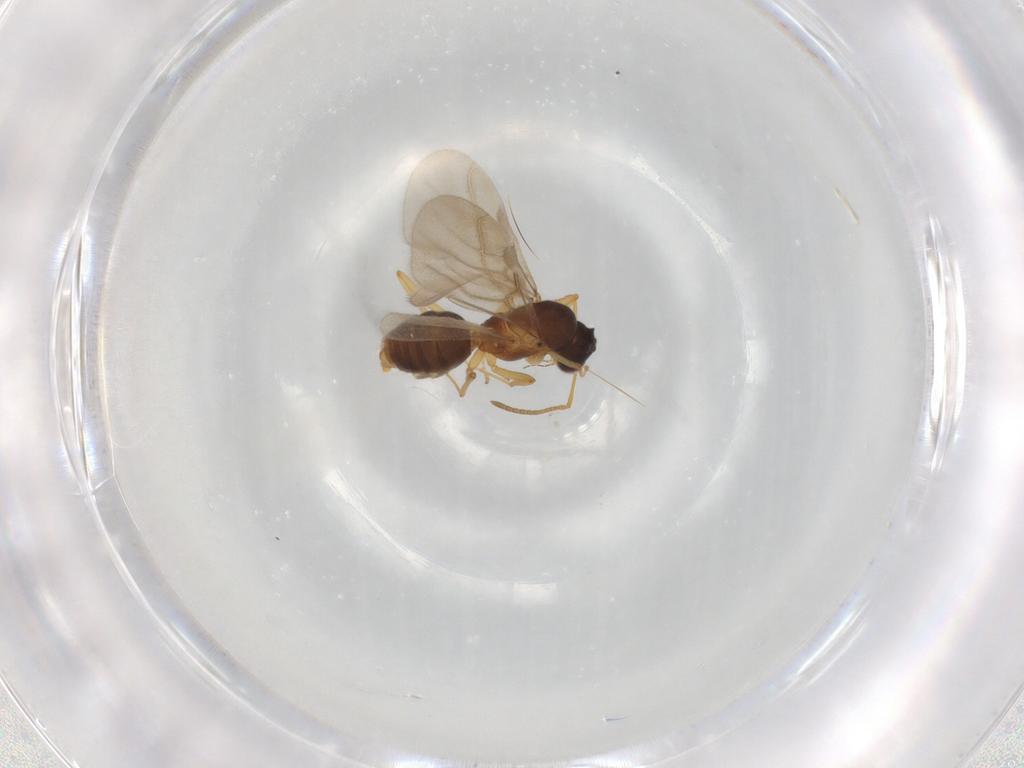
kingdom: Animalia
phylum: Arthropoda
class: Insecta
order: Hymenoptera
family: Formicidae
